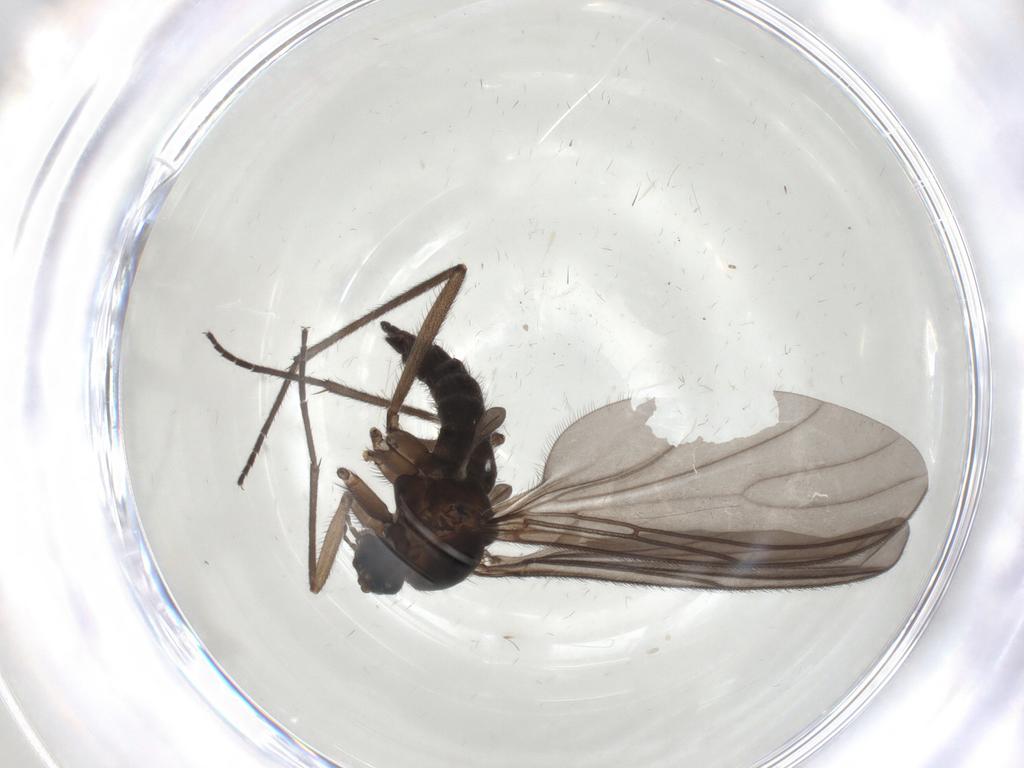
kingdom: Animalia
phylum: Arthropoda
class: Insecta
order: Diptera
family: Sciaridae
